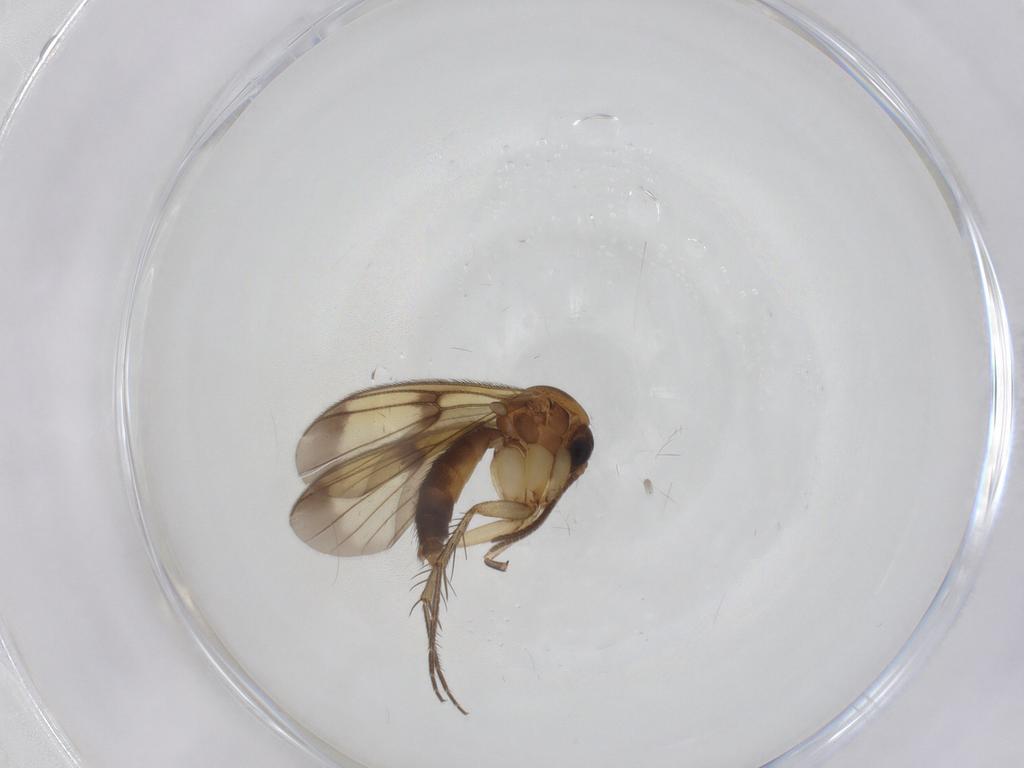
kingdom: Animalia
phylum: Arthropoda
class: Insecta
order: Diptera
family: Mycetophilidae
